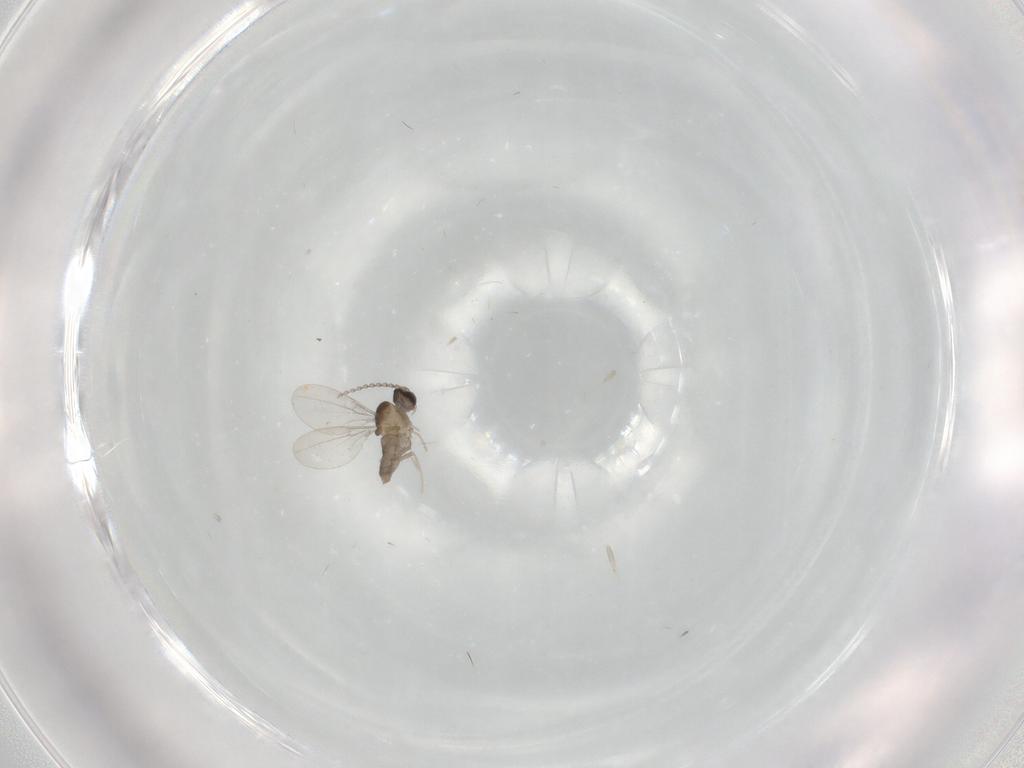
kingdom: Animalia
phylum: Arthropoda
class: Insecta
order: Diptera
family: Cecidomyiidae
